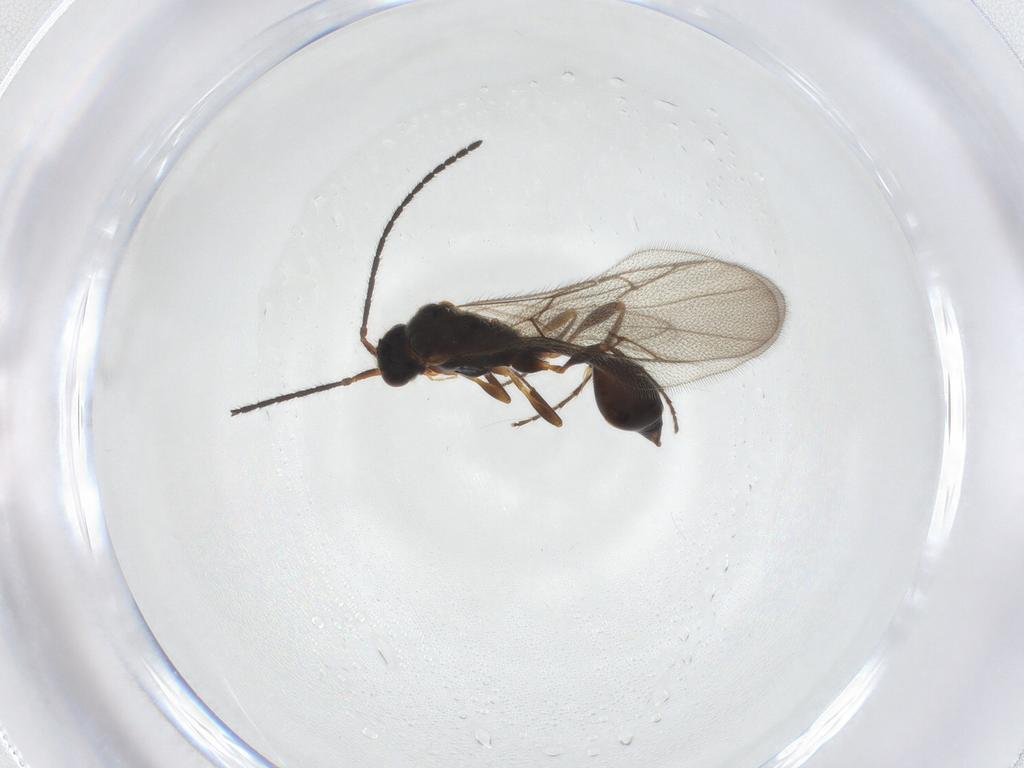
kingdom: Animalia
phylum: Arthropoda
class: Insecta
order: Hymenoptera
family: Diapriidae
